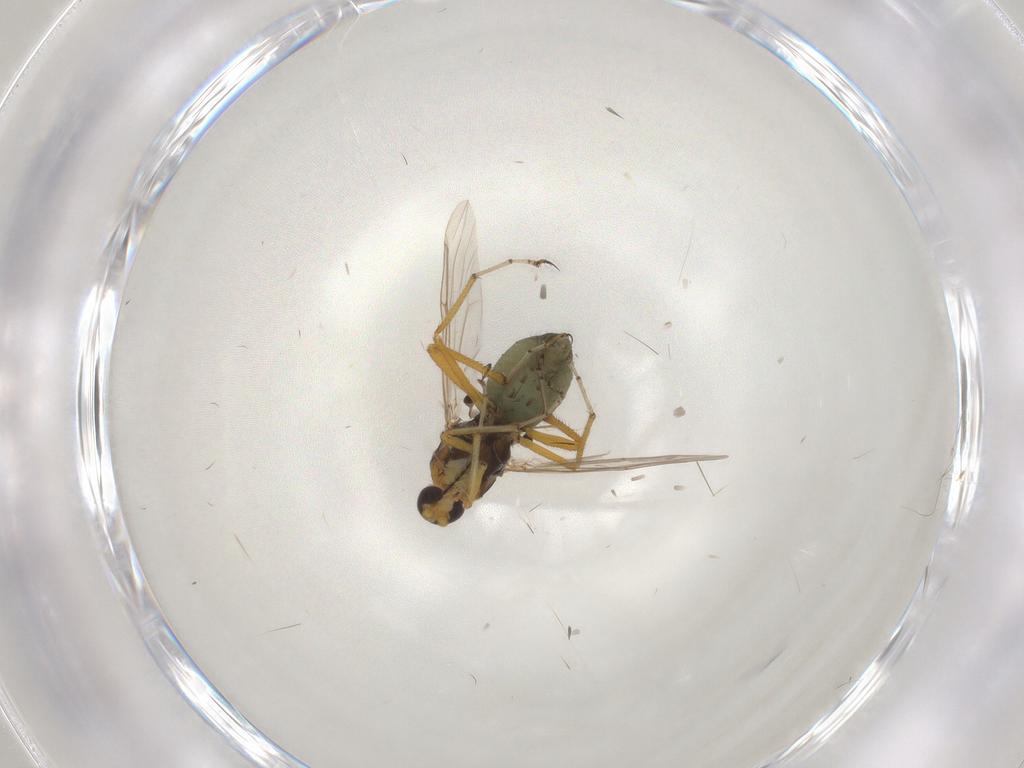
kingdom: Animalia
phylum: Arthropoda
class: Insecta
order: Diptera
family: Ceratopogonidae
